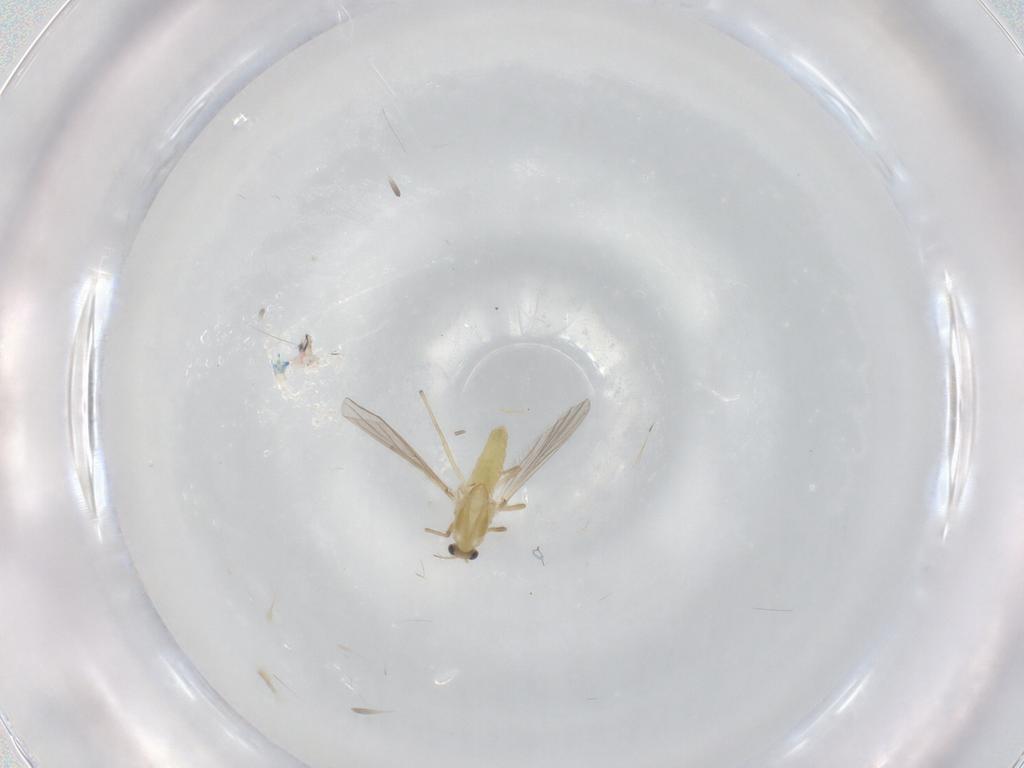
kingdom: Animalia
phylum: Arthropoda
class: Insecta
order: Diptera
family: Chironomidae
